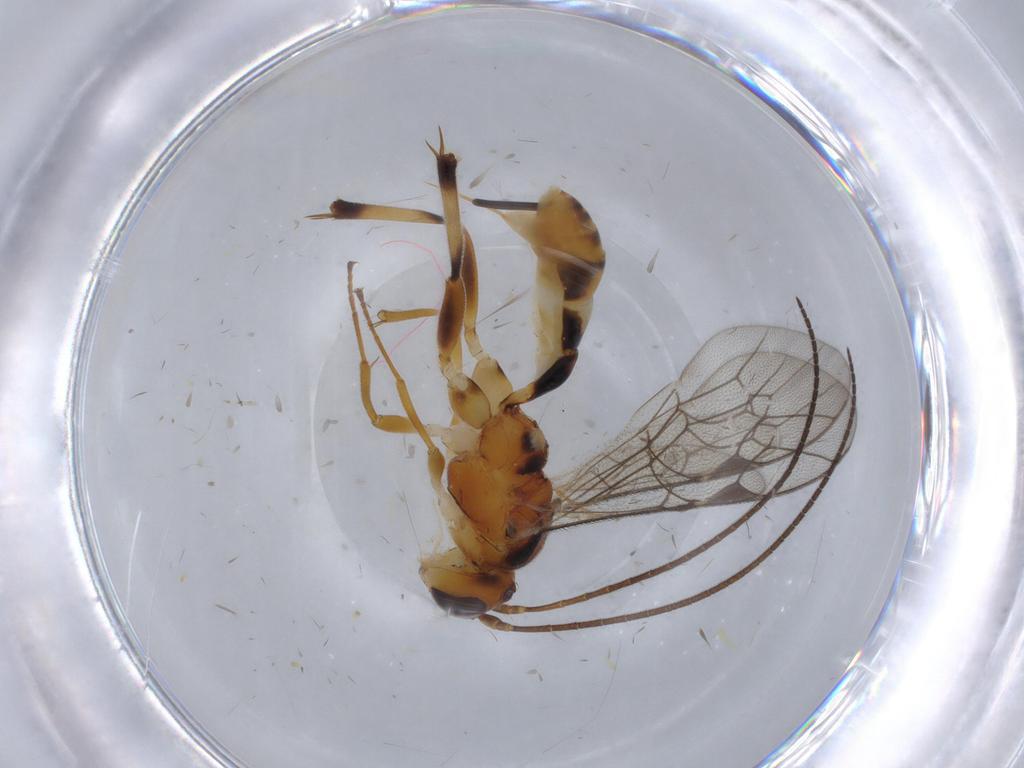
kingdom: Animalia
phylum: Arthropoda
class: Insecta
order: Hymenoptera
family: Ichneumonidae
